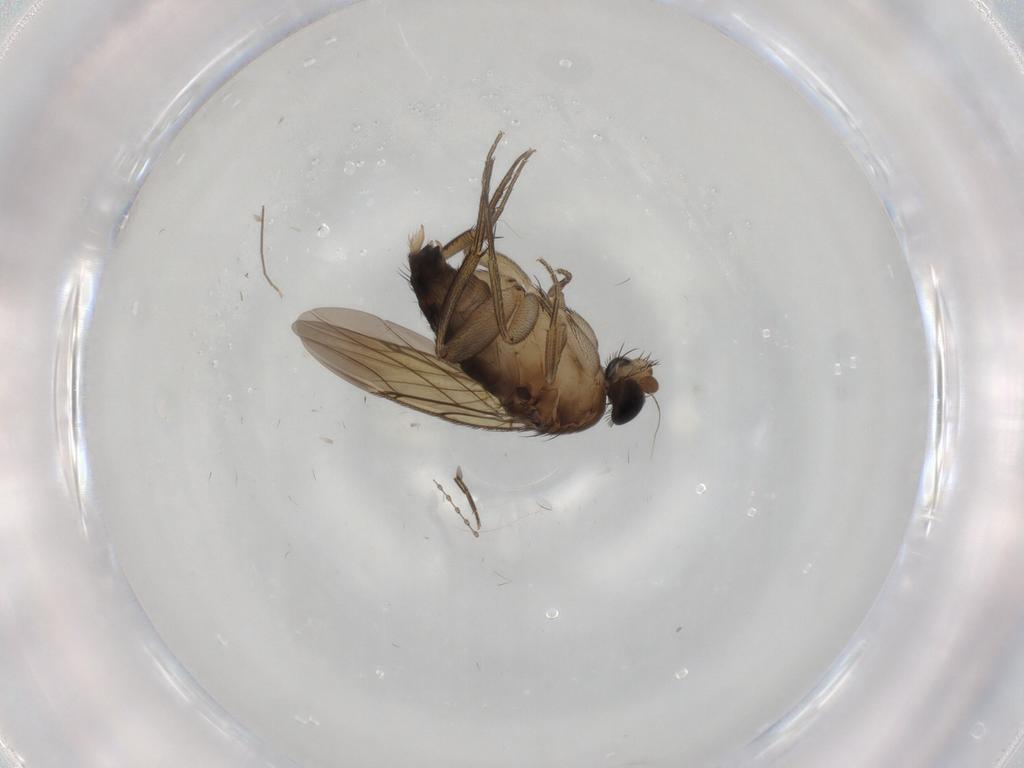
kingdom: Animalia
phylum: Arthropoda
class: Insecta
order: Diptera
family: Phoridae
